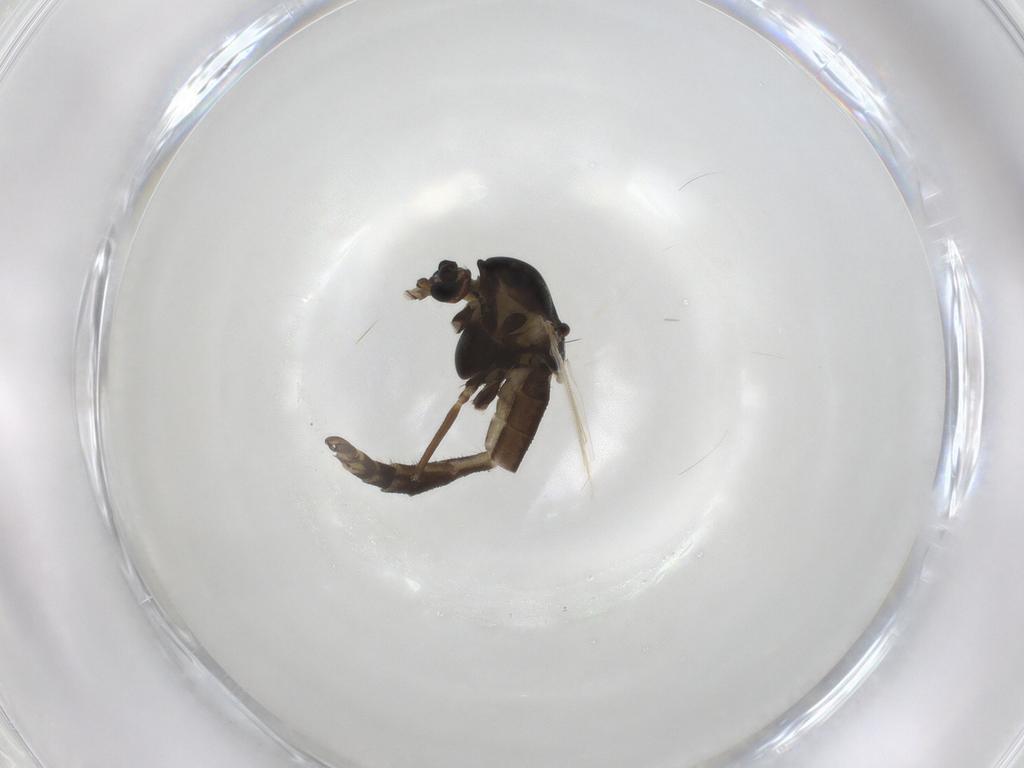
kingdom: Animalia
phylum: Arthropoda
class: Insecta
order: Diptera
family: Chironomidae
